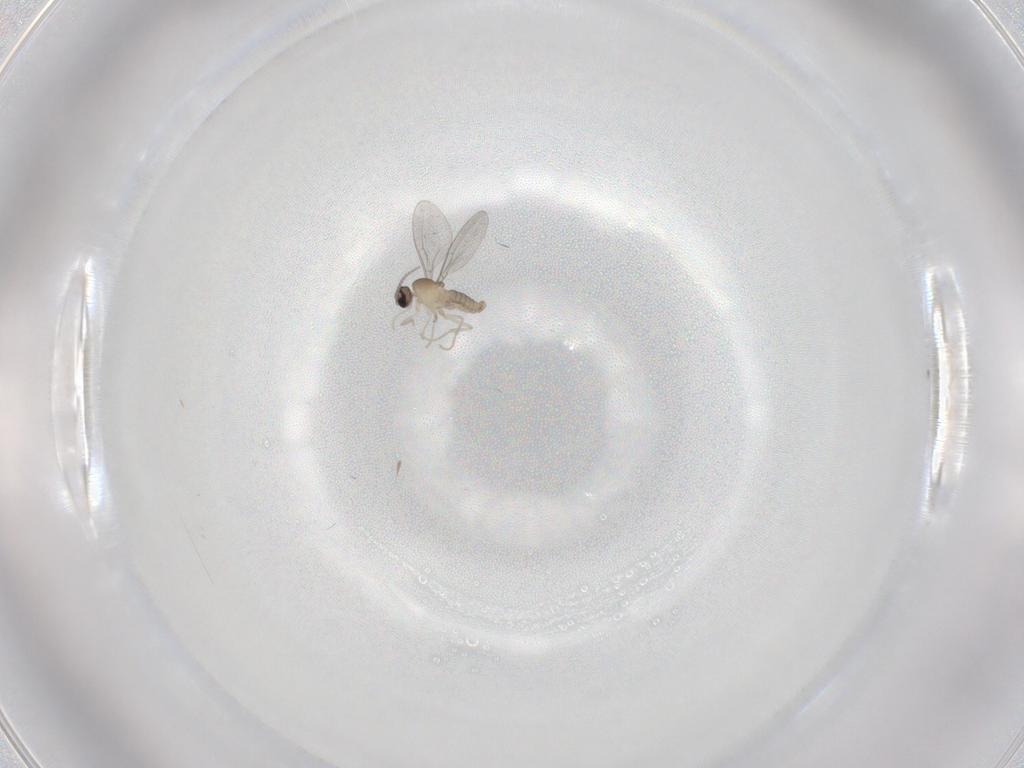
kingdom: Animalia
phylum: Arthropoda
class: Insecta
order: Diptera
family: Cecidomyiidae
